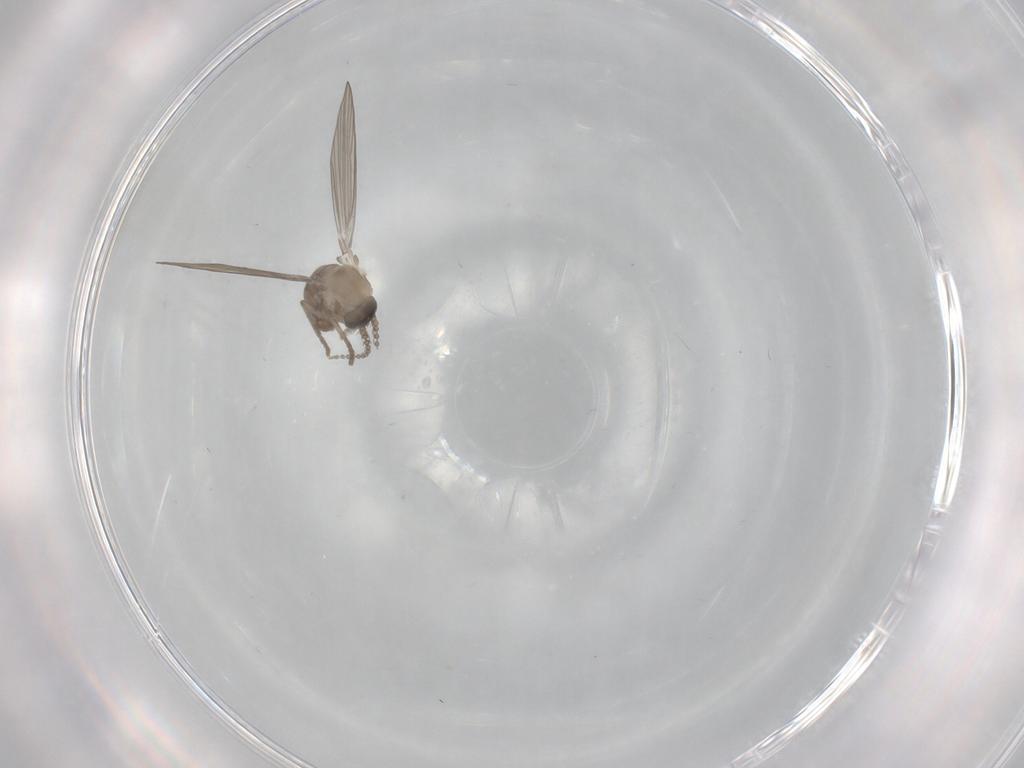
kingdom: Animalia
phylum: Arthropoda
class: Insecta
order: Diptera
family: Psychodidae
